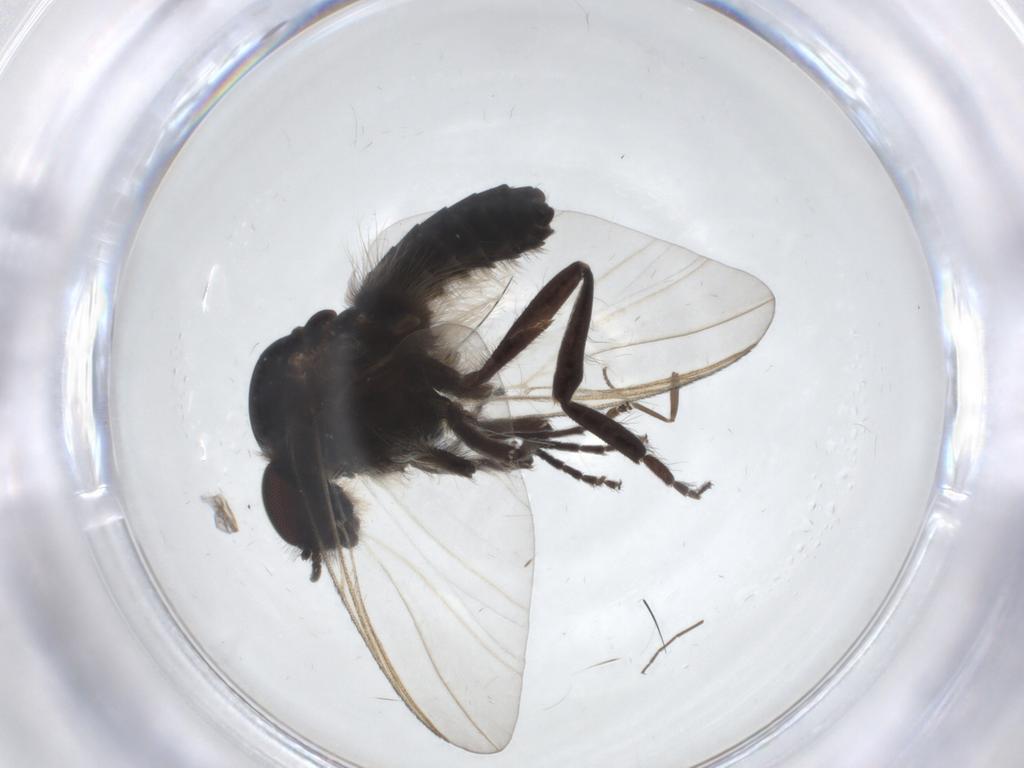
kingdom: Animalia
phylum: Arthropoda
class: Insecta
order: Diptera
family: Hybotidae
